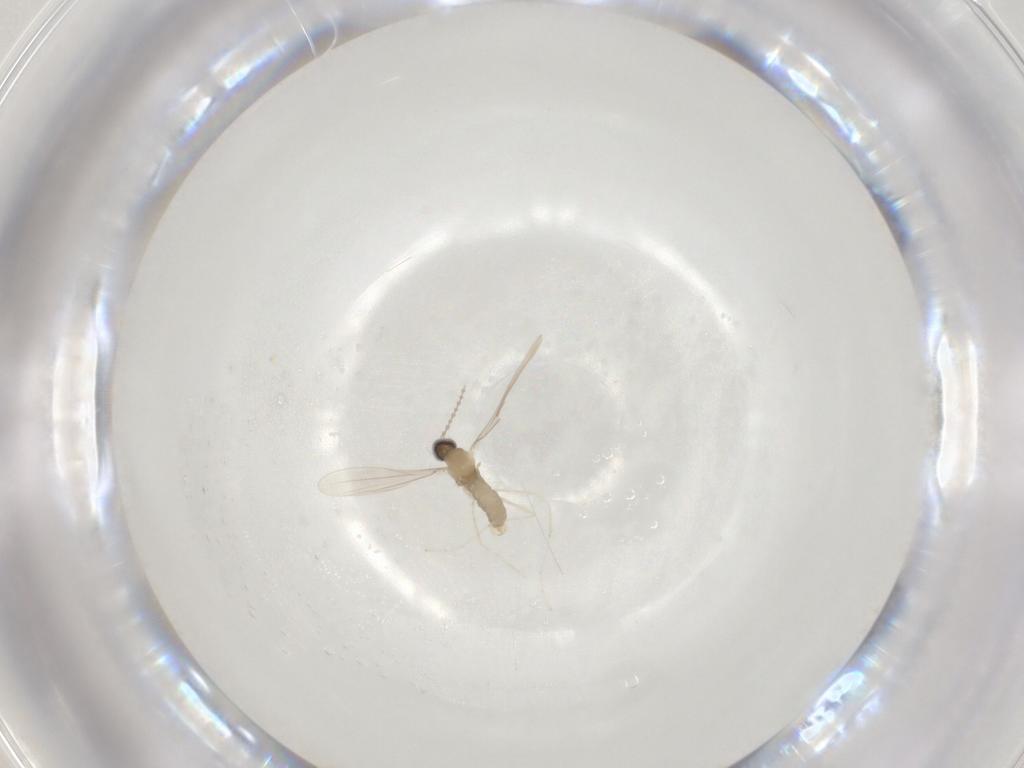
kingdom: Animalia
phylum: Arthropoda
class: Insecta
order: Diptera
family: Cecidomyiidae
